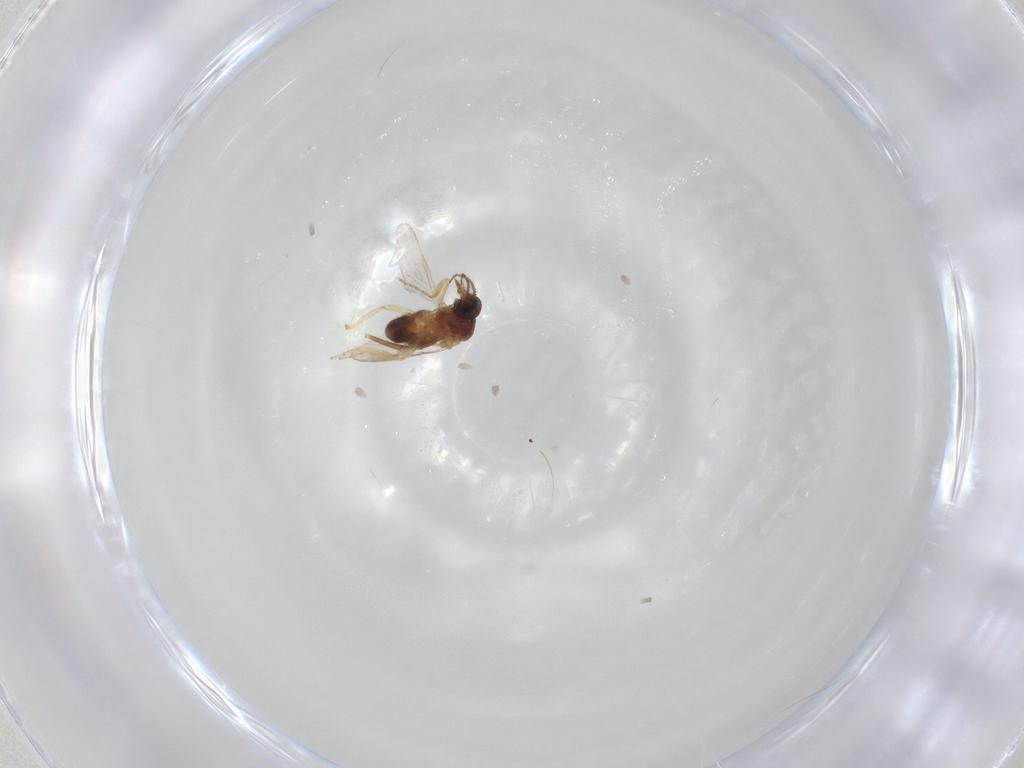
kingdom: Animalia
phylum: Arthropoda
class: Insecta
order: Diptera
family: Ceratopogonidae
